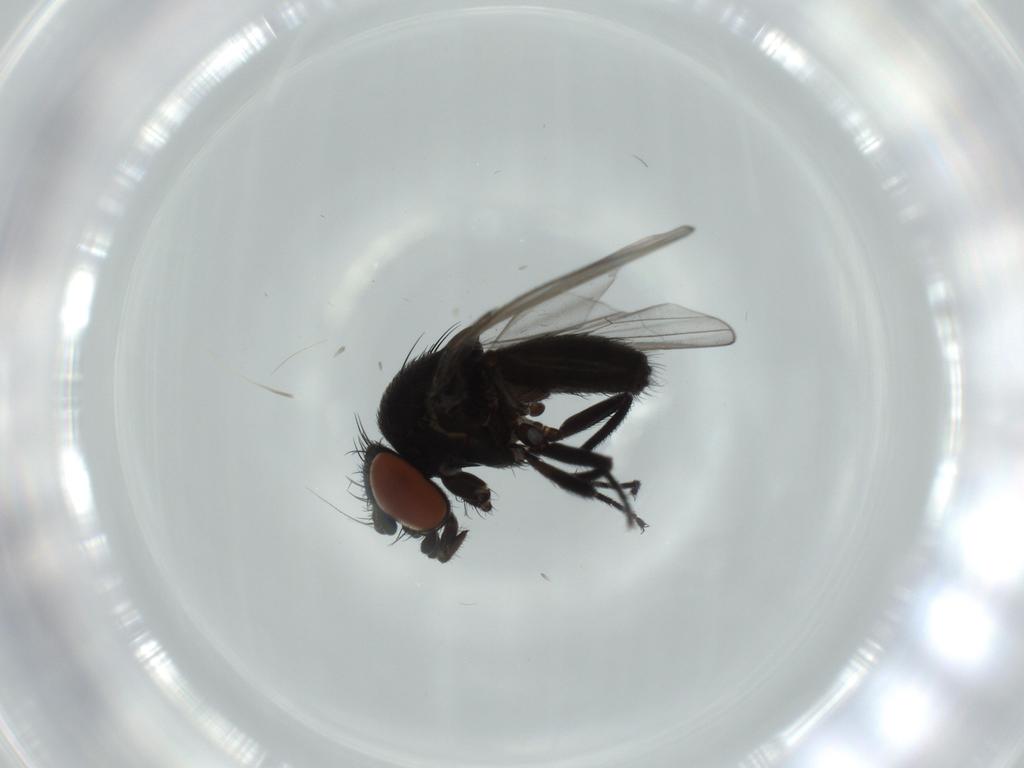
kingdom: Animalia
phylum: Arthropoda
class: Insecta
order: Diptera
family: Milichiidae
